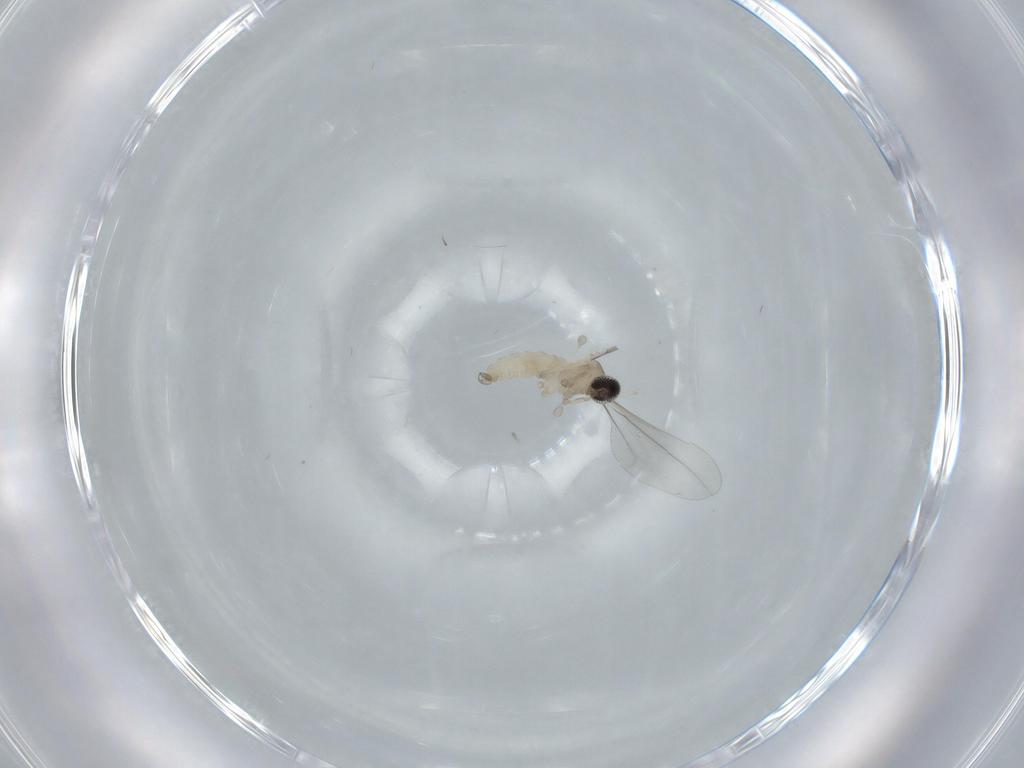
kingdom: Animalia
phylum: Arthropoda
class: Insecta
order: Diptera
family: Cecidomyiidae
